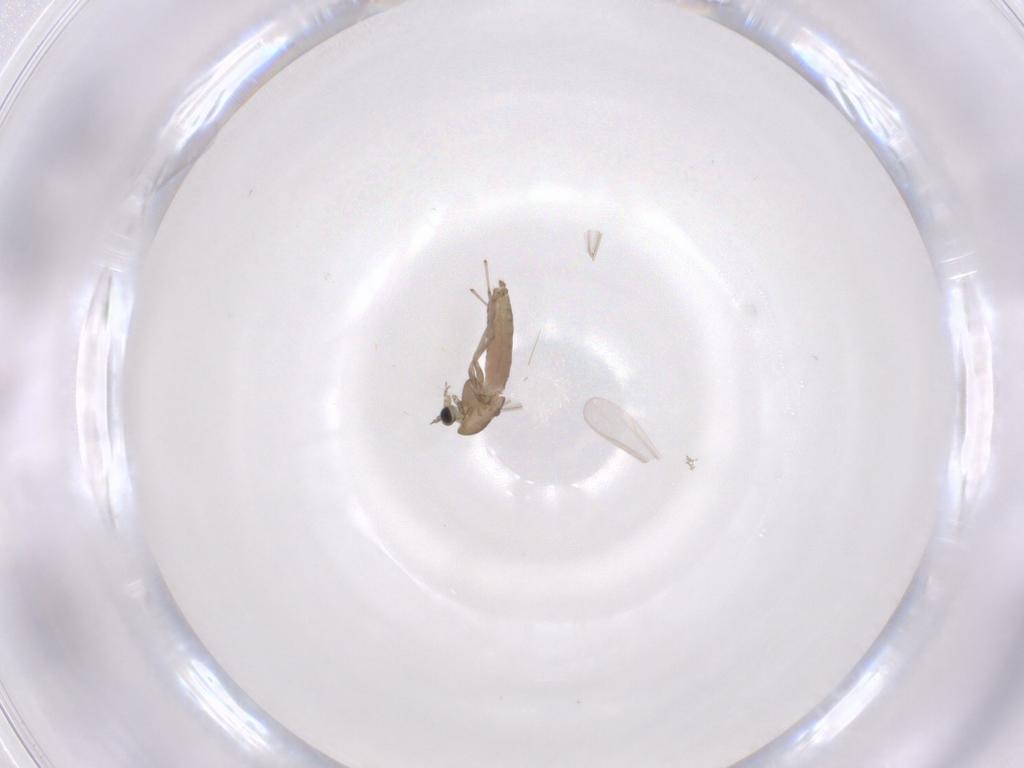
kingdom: Animalia
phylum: Arthropoda
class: Insecta
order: Diptera
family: Chironomidae
